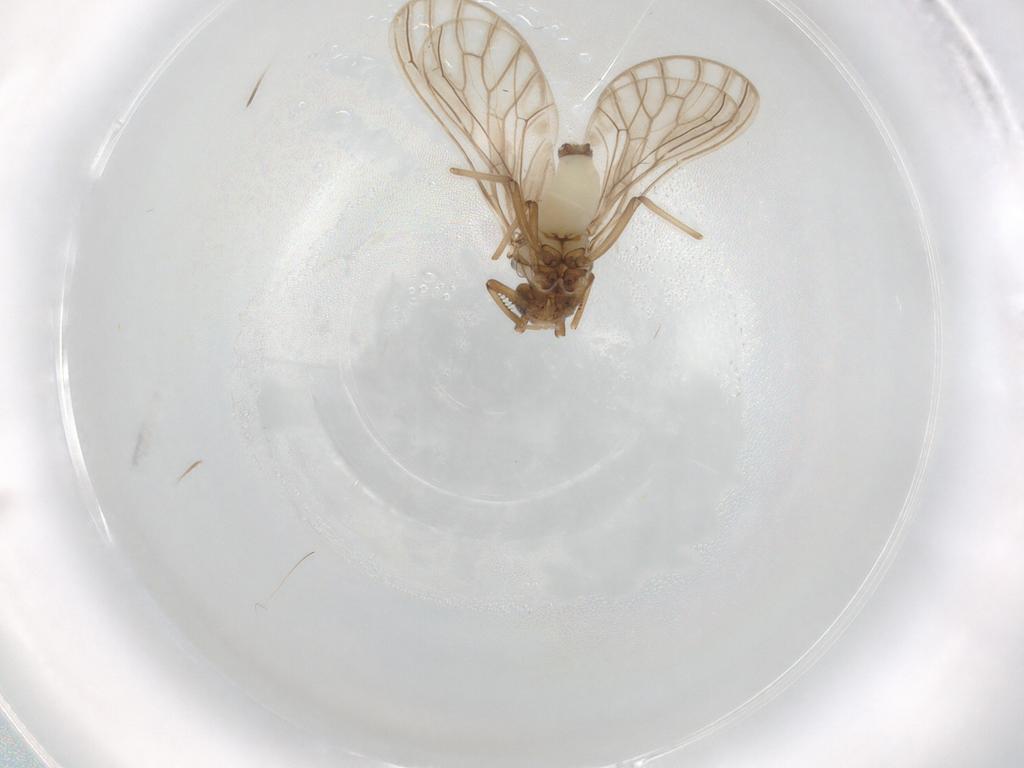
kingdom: Animalia
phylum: Arthropoda
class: Insecta
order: Neuroptera
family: Coniopterygidae
